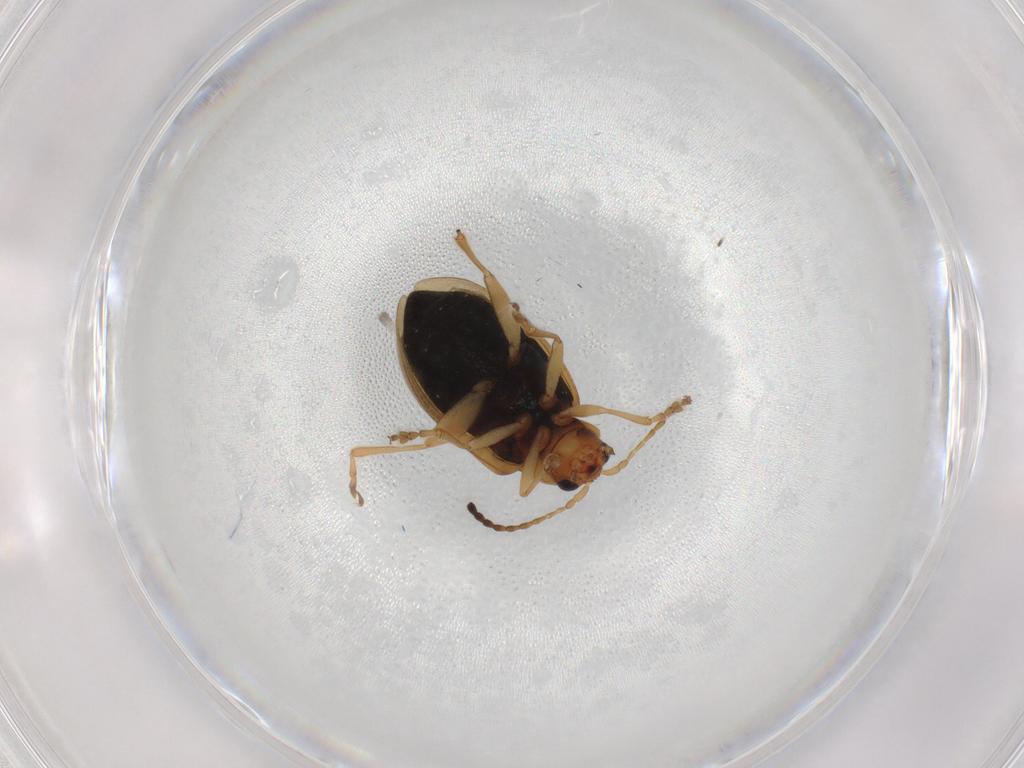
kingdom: Animalia
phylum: Arthropoda
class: Insecta
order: Coleoptera
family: Chrysomelidae
